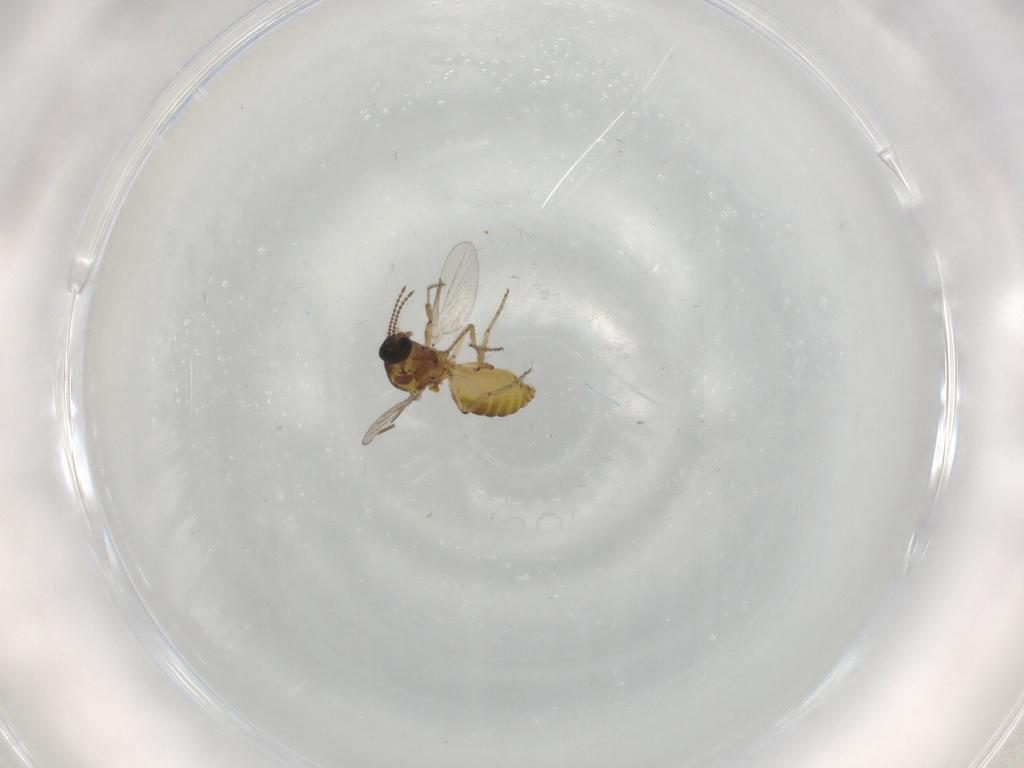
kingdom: Animalia
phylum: Arthropoda
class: Insecta
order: Diptera
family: Ceratopogonidae
